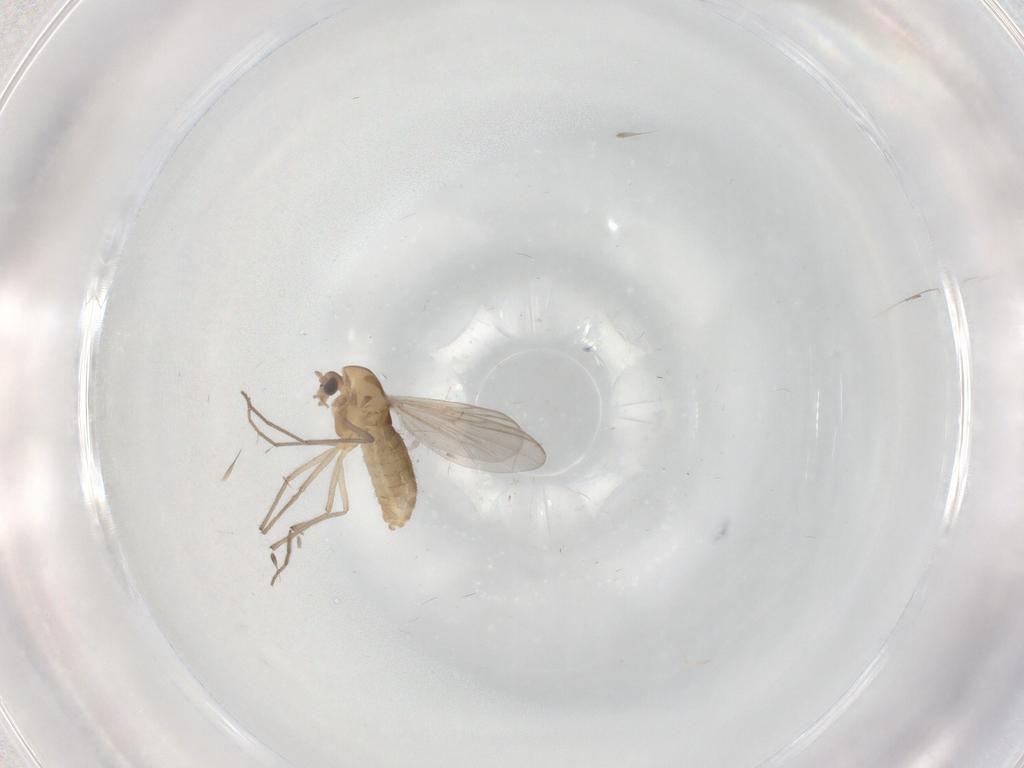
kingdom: Animalia
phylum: Arthropoda
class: Insecta
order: Diptera
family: Chironomidae
